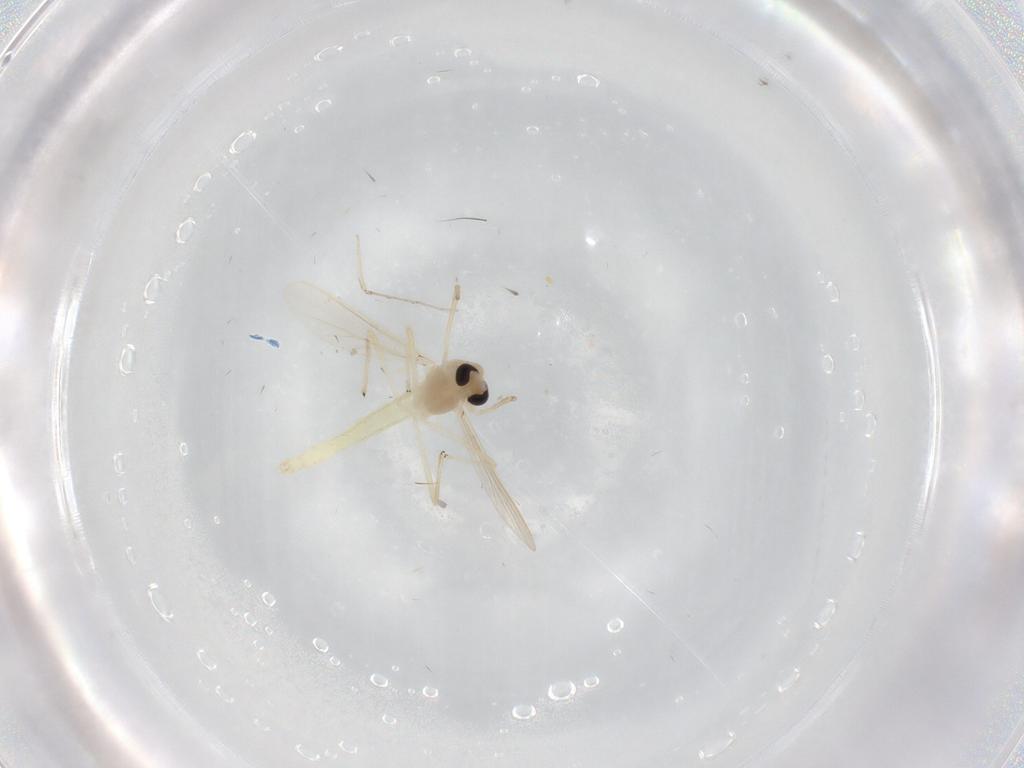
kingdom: Animalia
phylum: Arthropoda
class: Insecta
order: Diptera
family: Chironomidae
